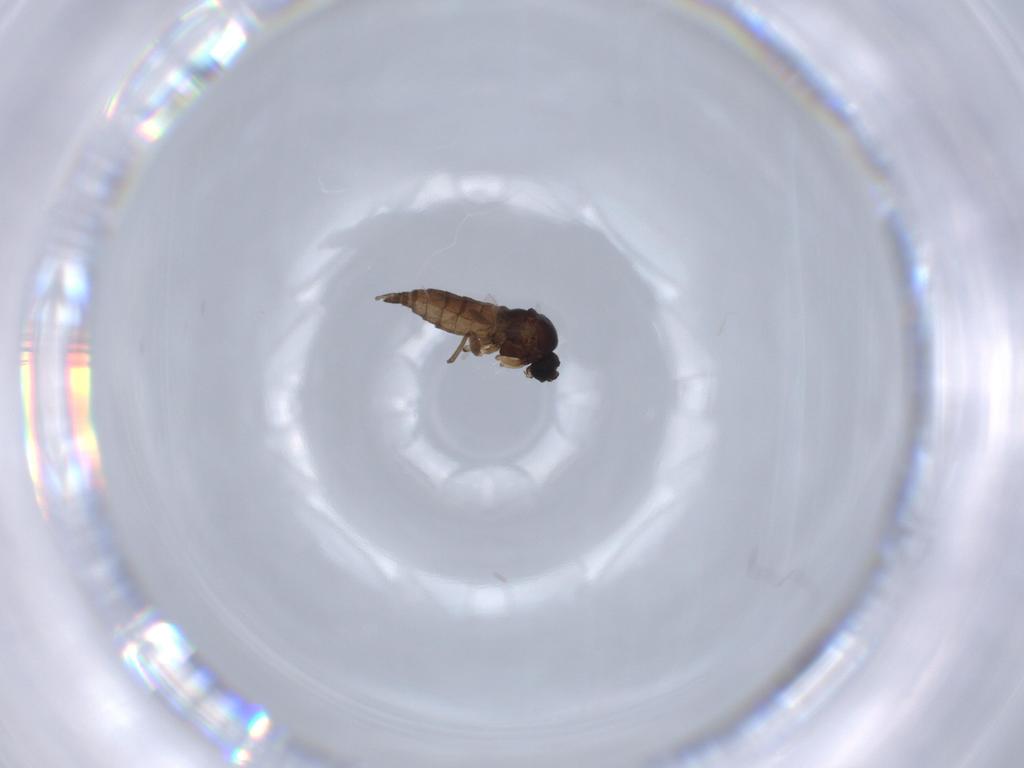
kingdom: Animalia
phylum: Arthropoda
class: Insecta
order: Diptera
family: Sciaridae
